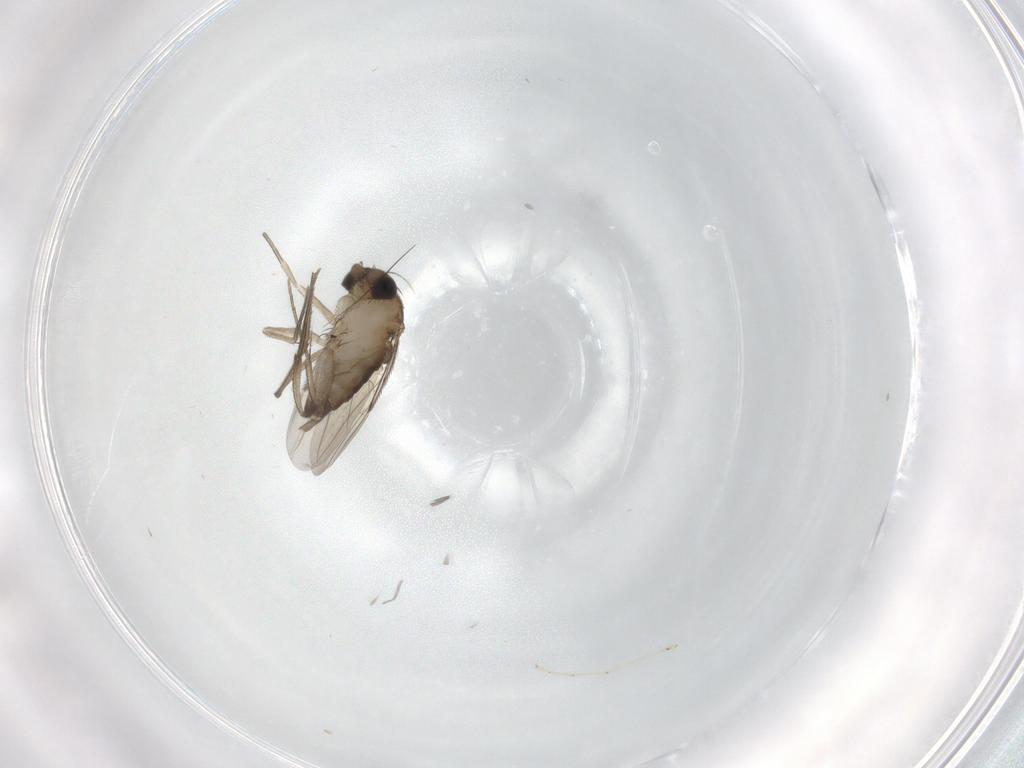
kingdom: Animalia
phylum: Arthropoda
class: Insecta
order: Diptera
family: Phoridae
